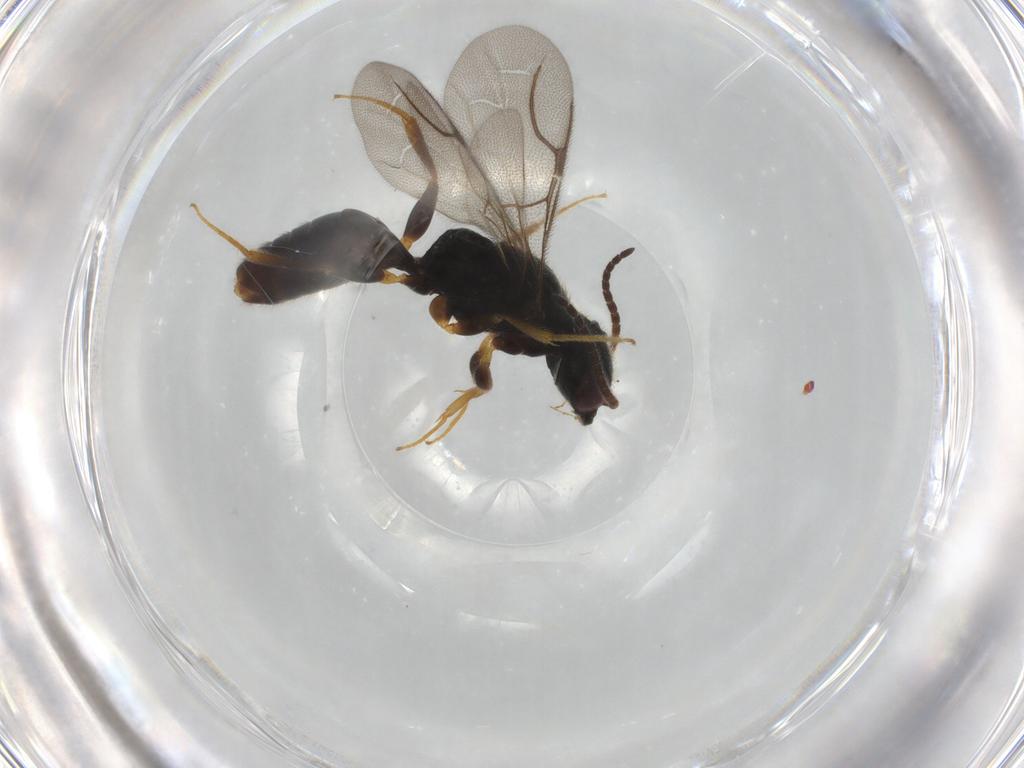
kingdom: Animalia
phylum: Arthropoda
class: Insecta
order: Hymenoptera
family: Bethylidae
